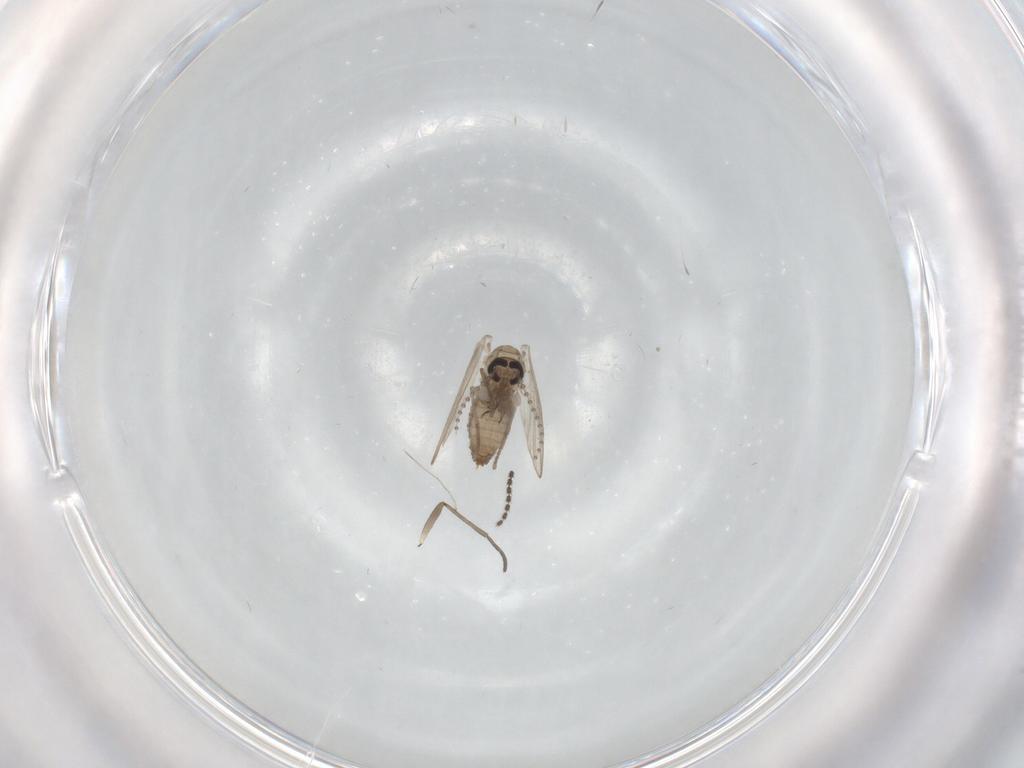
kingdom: Animalia
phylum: Arthropoda
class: Insecta
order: Diptera
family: Psychodidae
